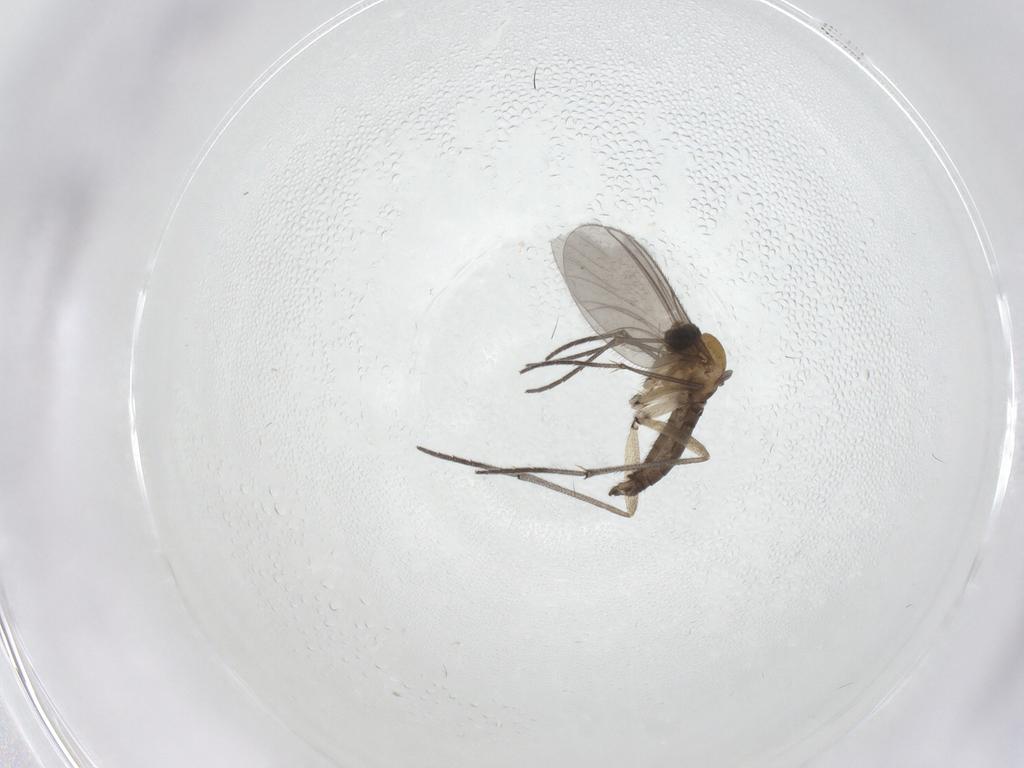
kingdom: Animalia
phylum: Arthropoda
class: Insecta
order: Diptera
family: Sciaridae
